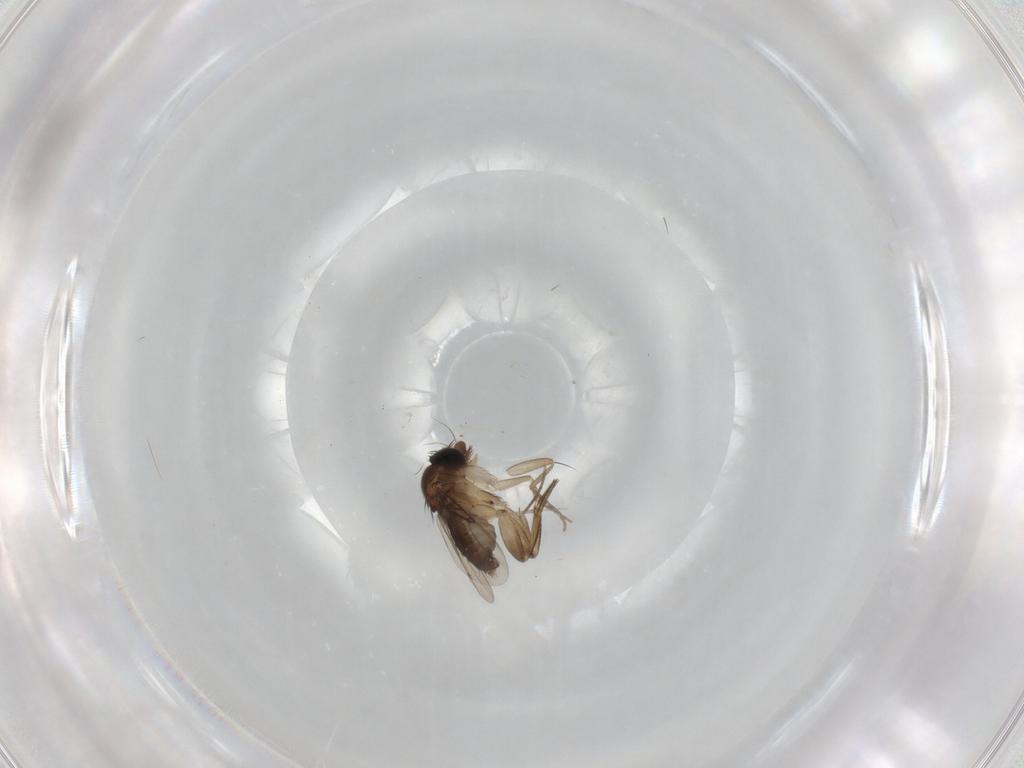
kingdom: Animalia
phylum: Arthropoda
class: Insecta
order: Diptera
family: Phoridae
